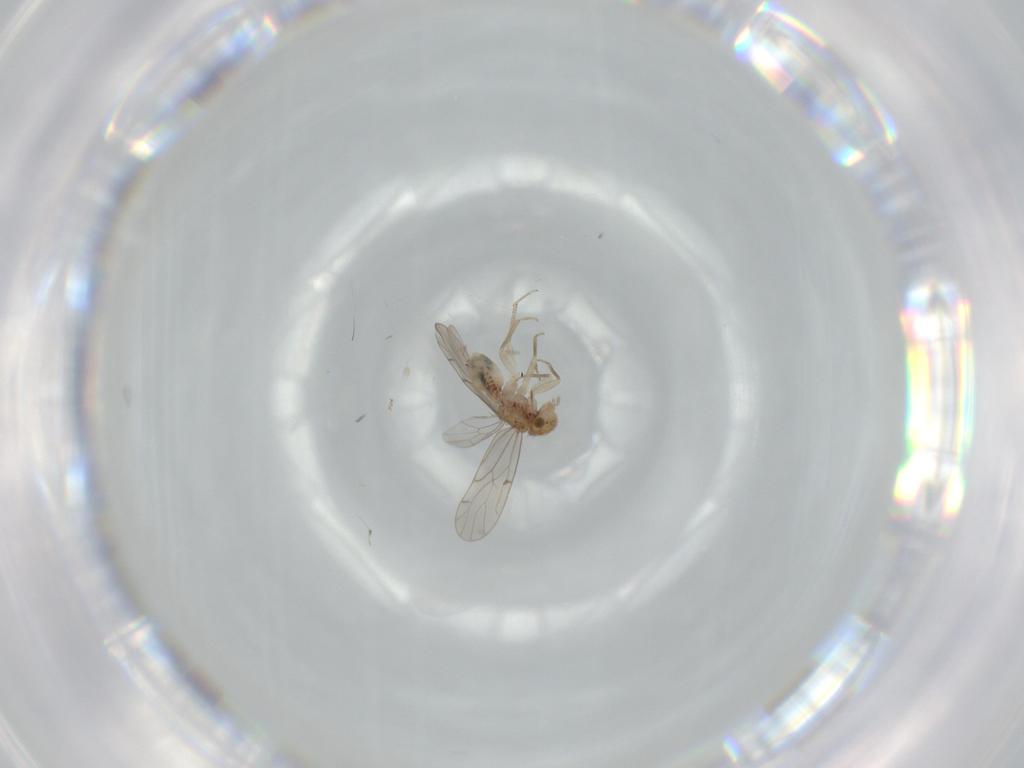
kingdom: Animalia
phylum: Arthropoda
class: Insecta
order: Psocodea
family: Ectopsocidae
